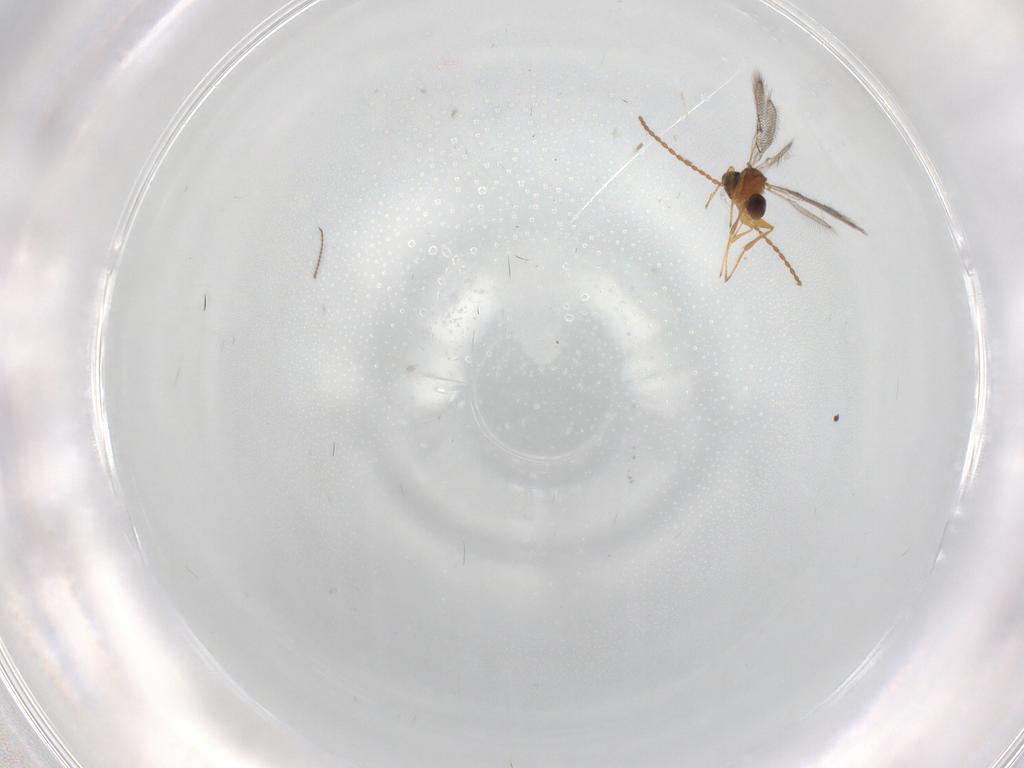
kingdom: Animalia
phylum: Arthropoda
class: Insecta
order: Hymenoptera
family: Figitidae
